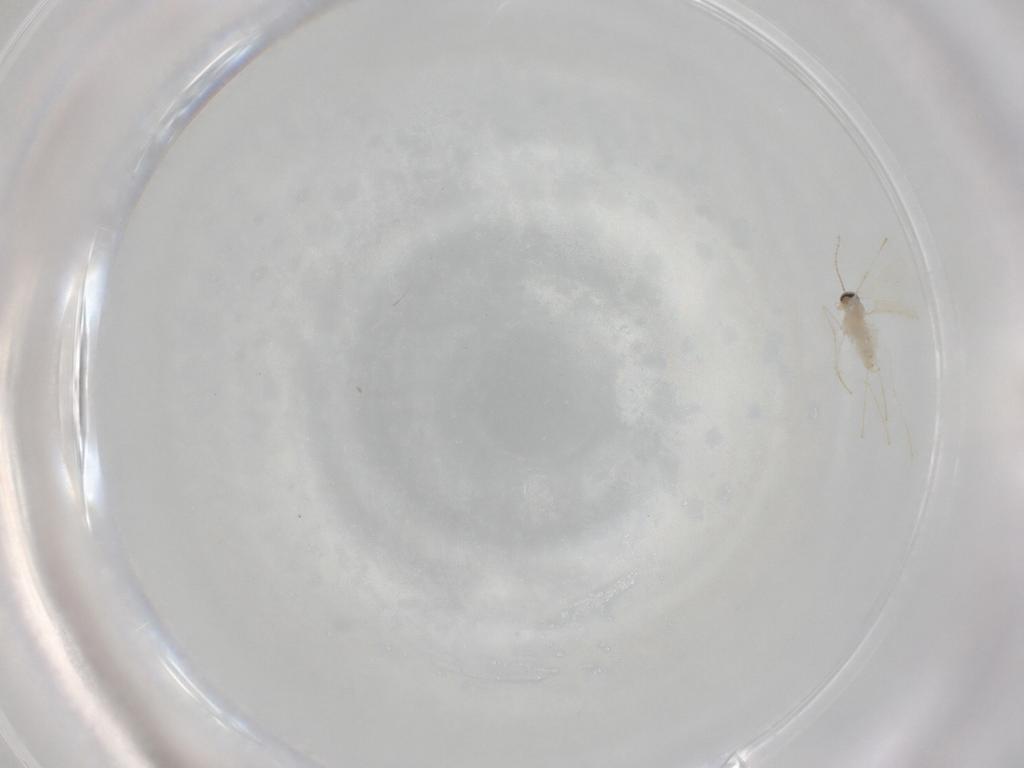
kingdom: Animalia
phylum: Arthropoda
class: Insecta
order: Diptera
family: Cecidomyiidae
